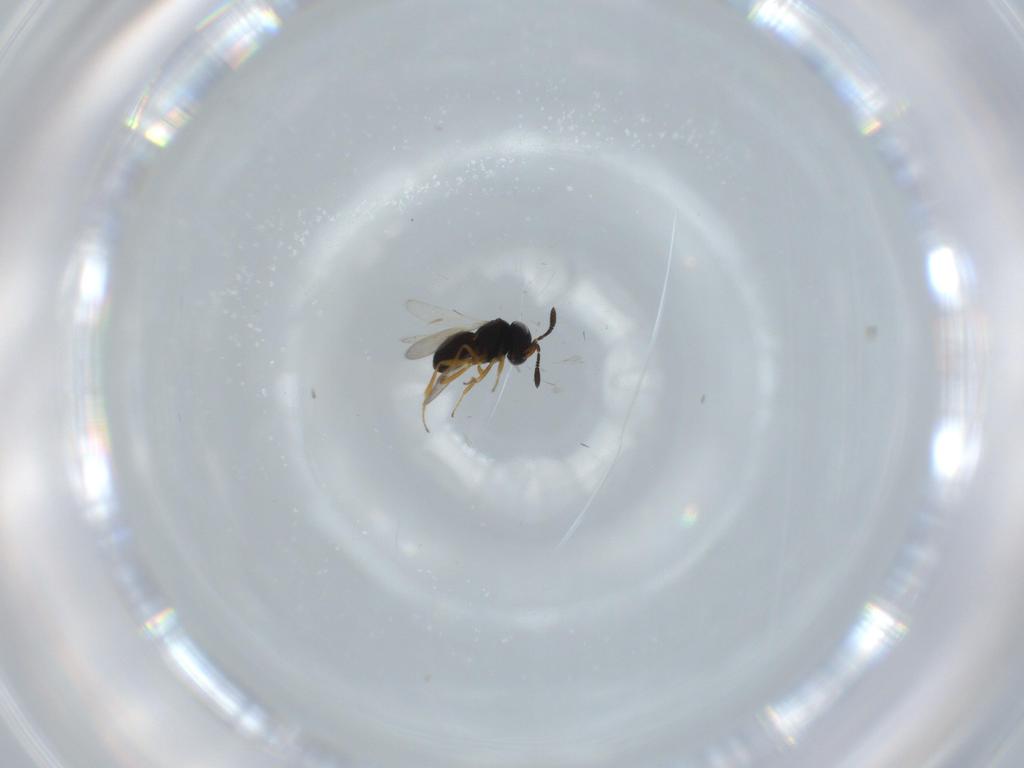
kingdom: Animalia
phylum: Arthropoda
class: Insecta
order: Hymenoptera
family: Scelionidae
